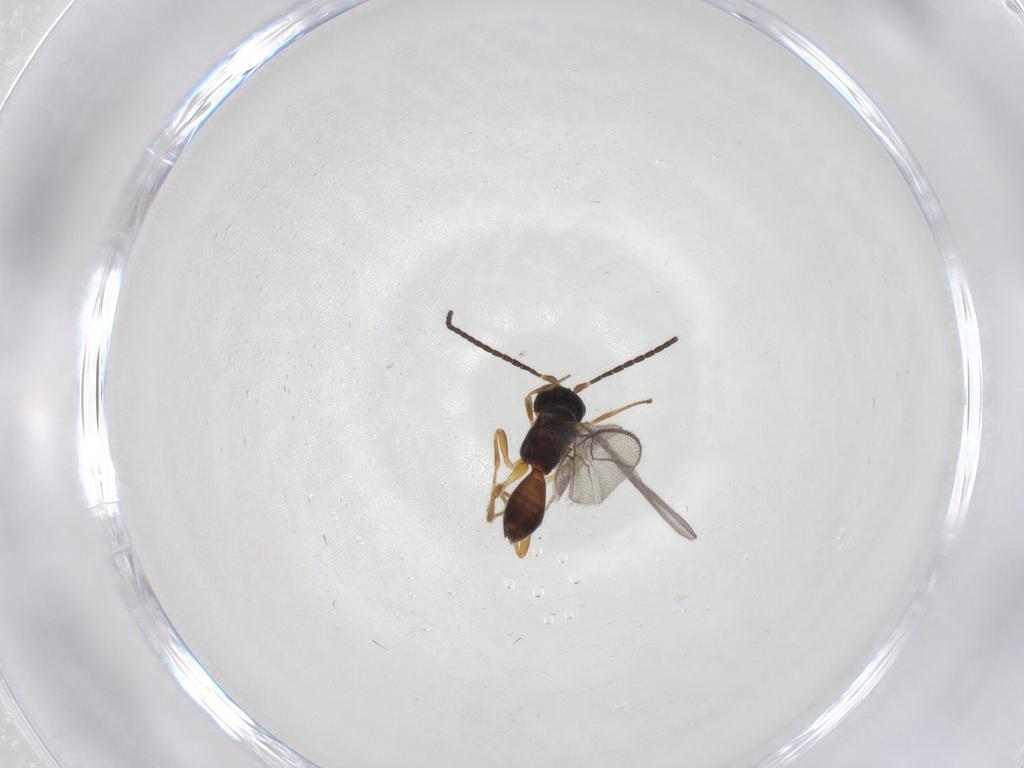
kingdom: Animalia
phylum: Arthropoda
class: Insecta
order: Hymenoptera
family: Braconidae
